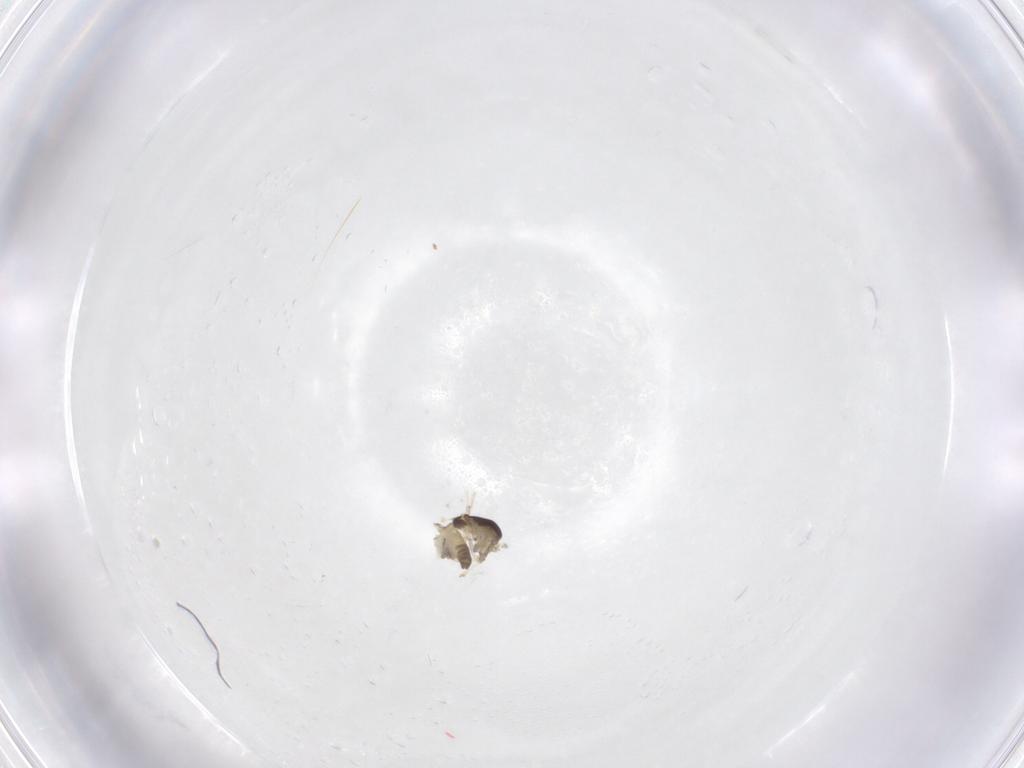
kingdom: Animalia
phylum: Arthropoda
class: Insecta
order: Diptera
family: Chironomidae
